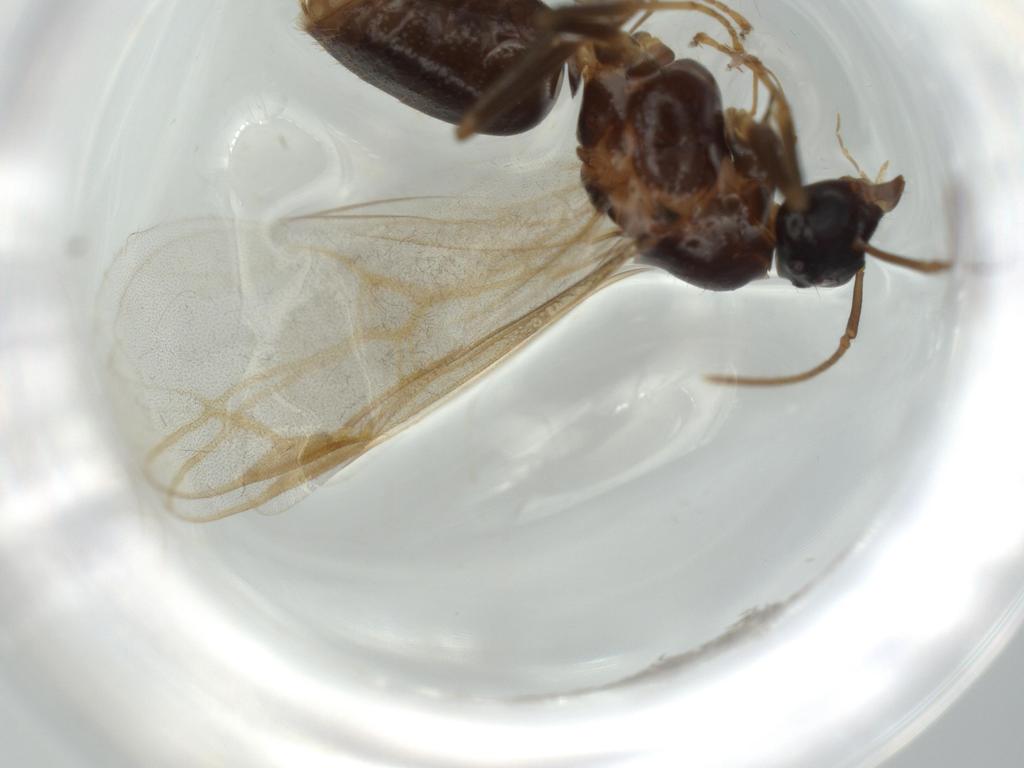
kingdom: Animalia
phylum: Arthropoda
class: Insecta
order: Hymenoptera
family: Formicidae
